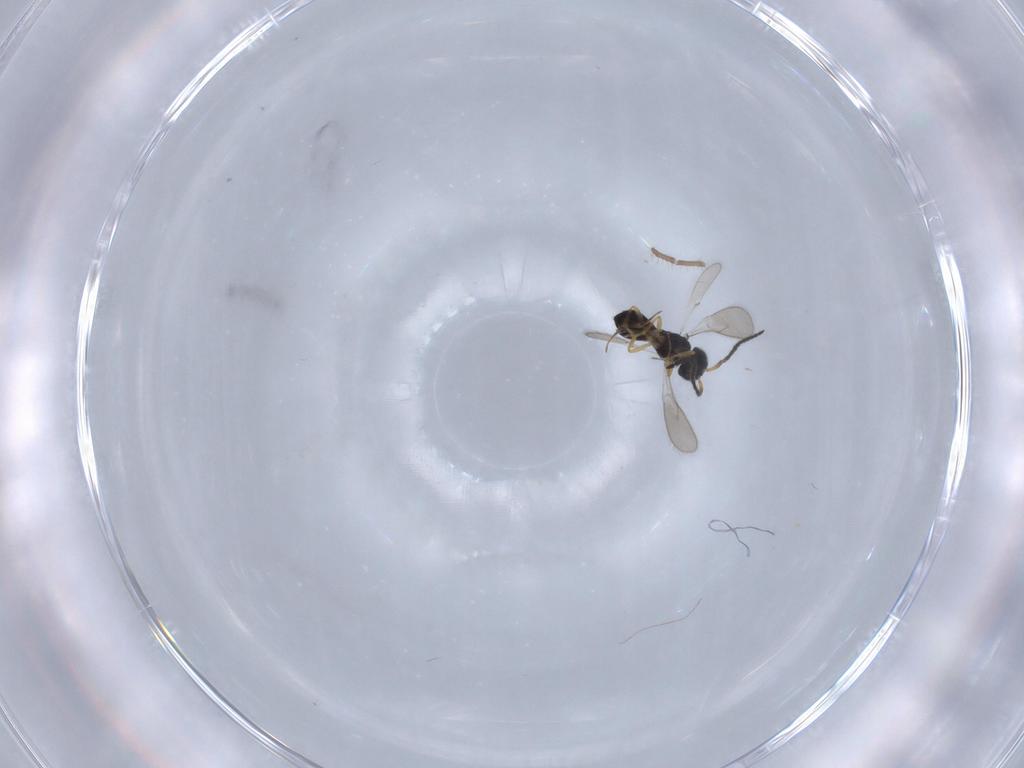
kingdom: Animalia
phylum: Arthropoda
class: Insecta
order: Hymenoptera
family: Scelionidae
